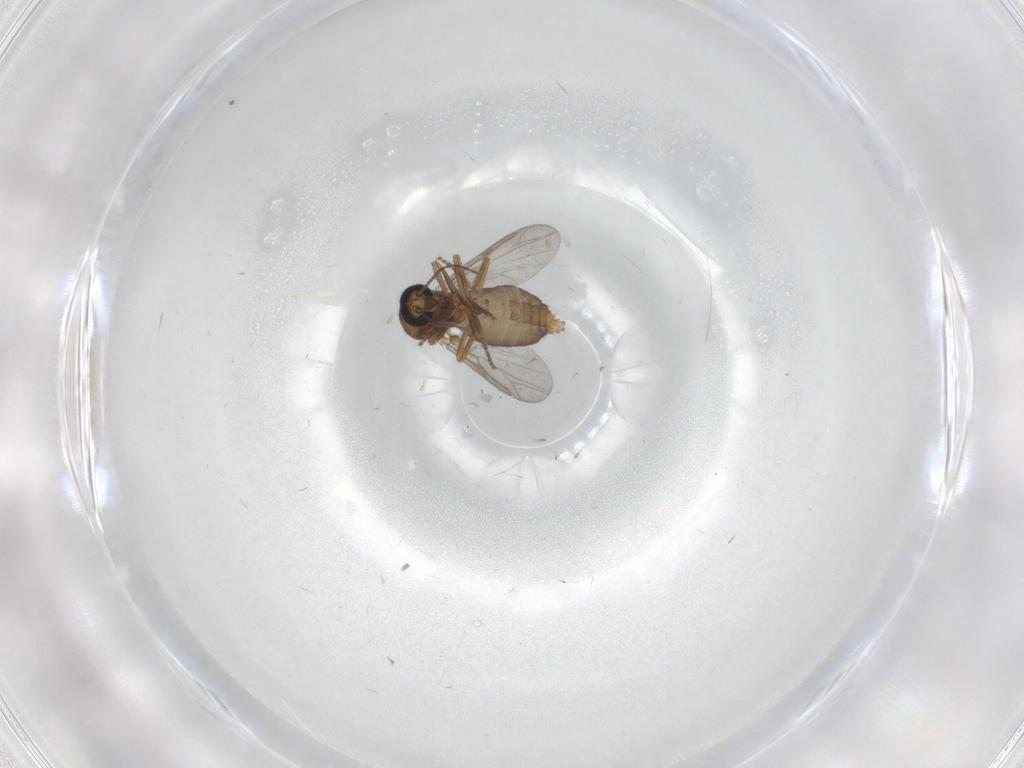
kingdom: Animalia
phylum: Arthropoda
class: Insecta
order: Diptera
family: Ceratopogonidae
